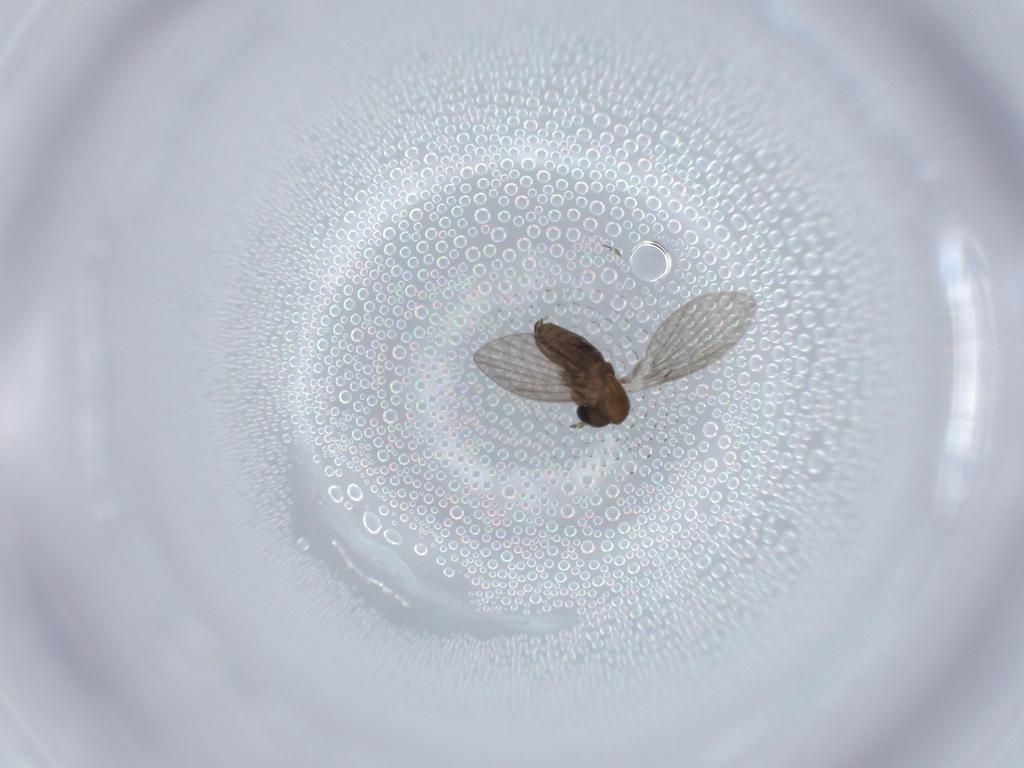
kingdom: Animalia
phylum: Arthropoda
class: Insecta
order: Diptera
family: Psychodidae
